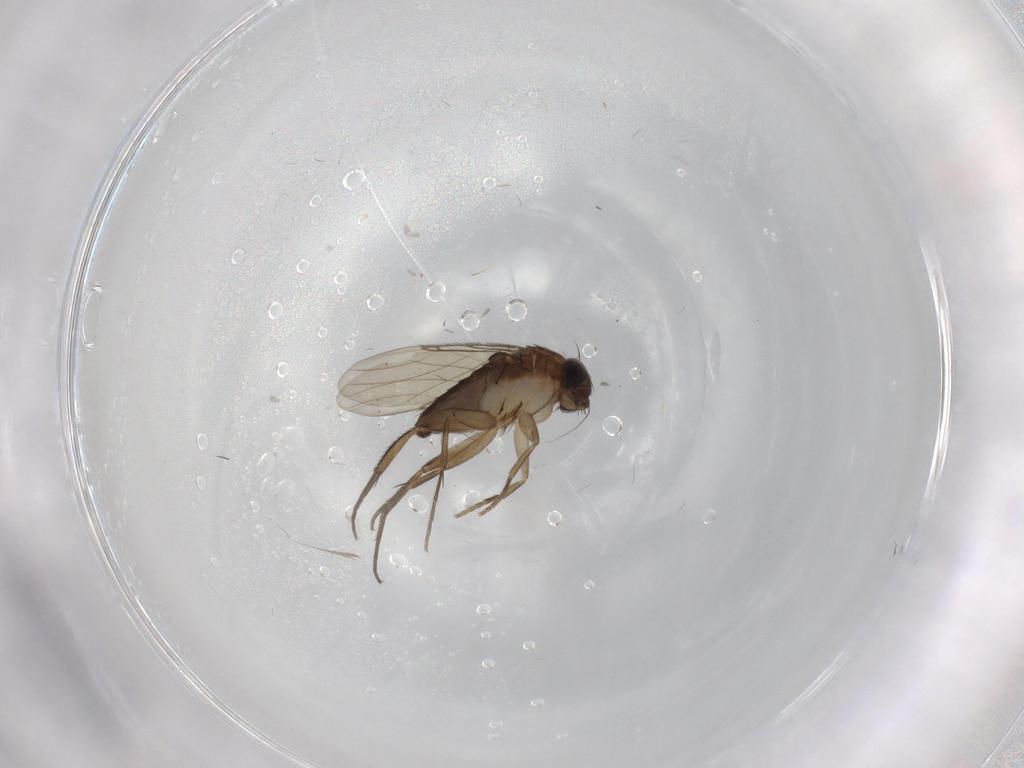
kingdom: Animalia
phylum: Arthropoda
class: Insecta
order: Diptera
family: Phoridae
